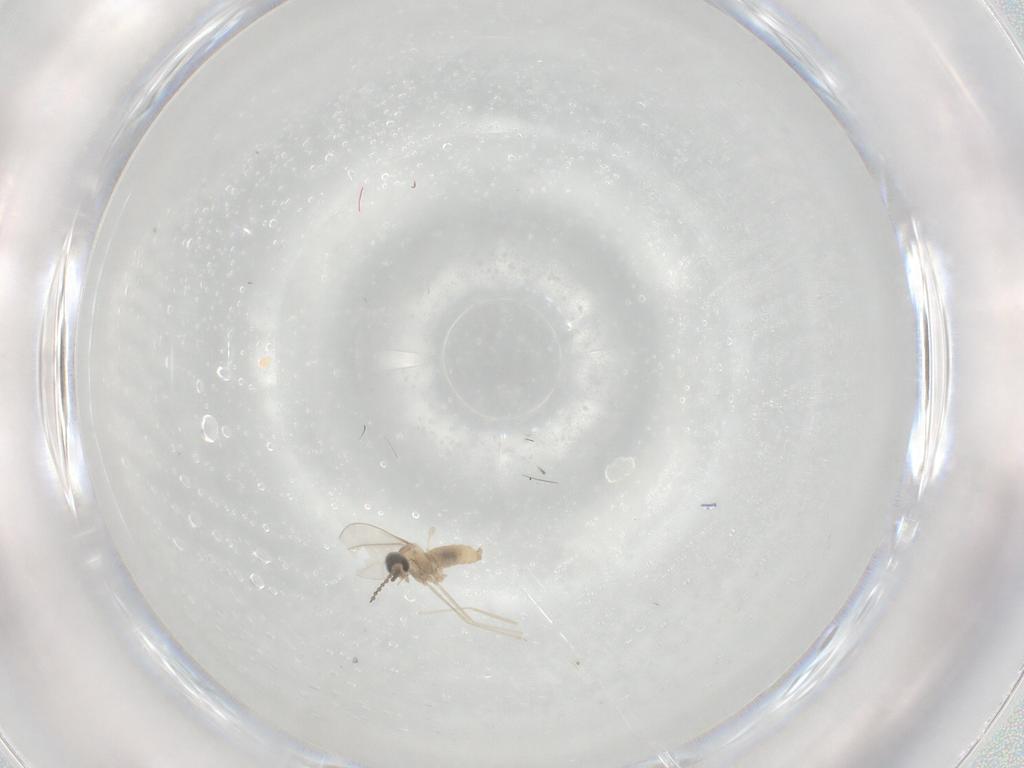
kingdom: Animalia
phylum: Arthropoda
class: Insecta
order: Diptera
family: Cecidomyiidae
